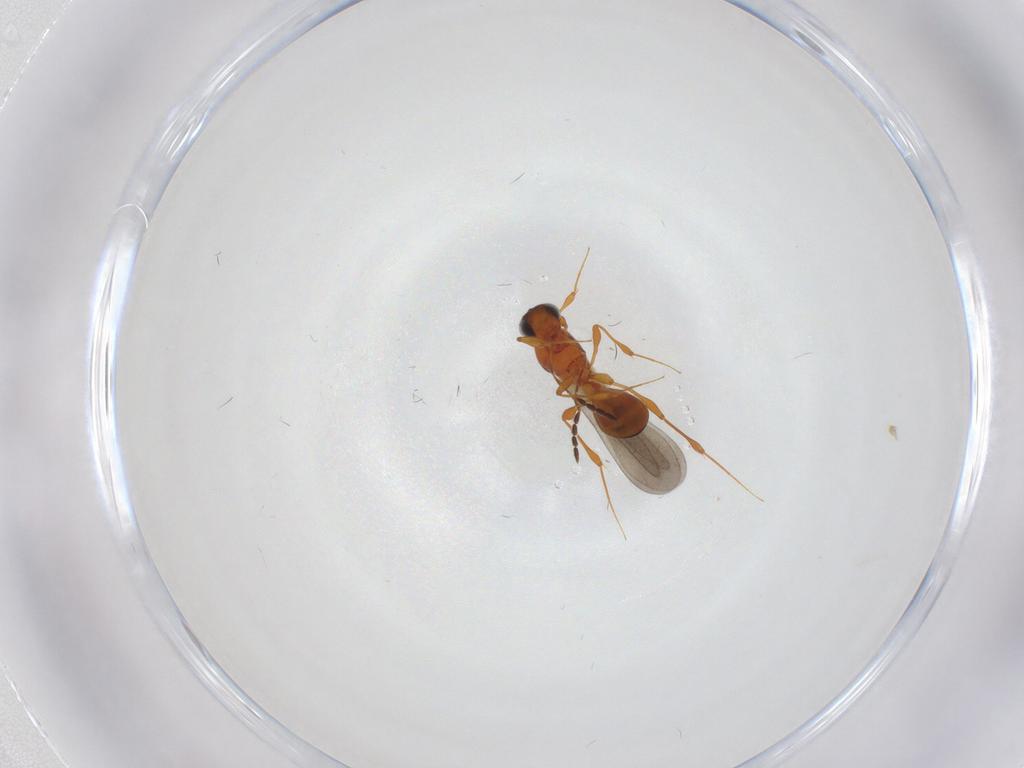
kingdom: Animalia
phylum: Arthropoda
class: Insecta
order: Hymenoptera
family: Platygastridae
